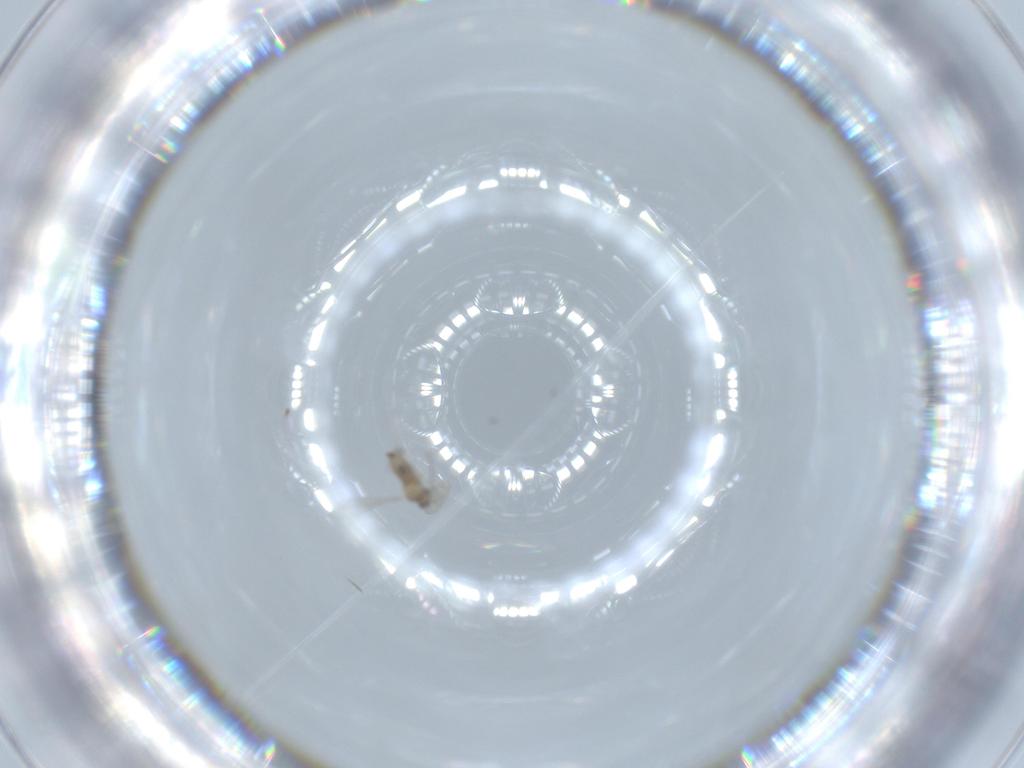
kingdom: Animalia
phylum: Arthropoda
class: Insecta
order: Diptera
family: Cecidomyiidae
